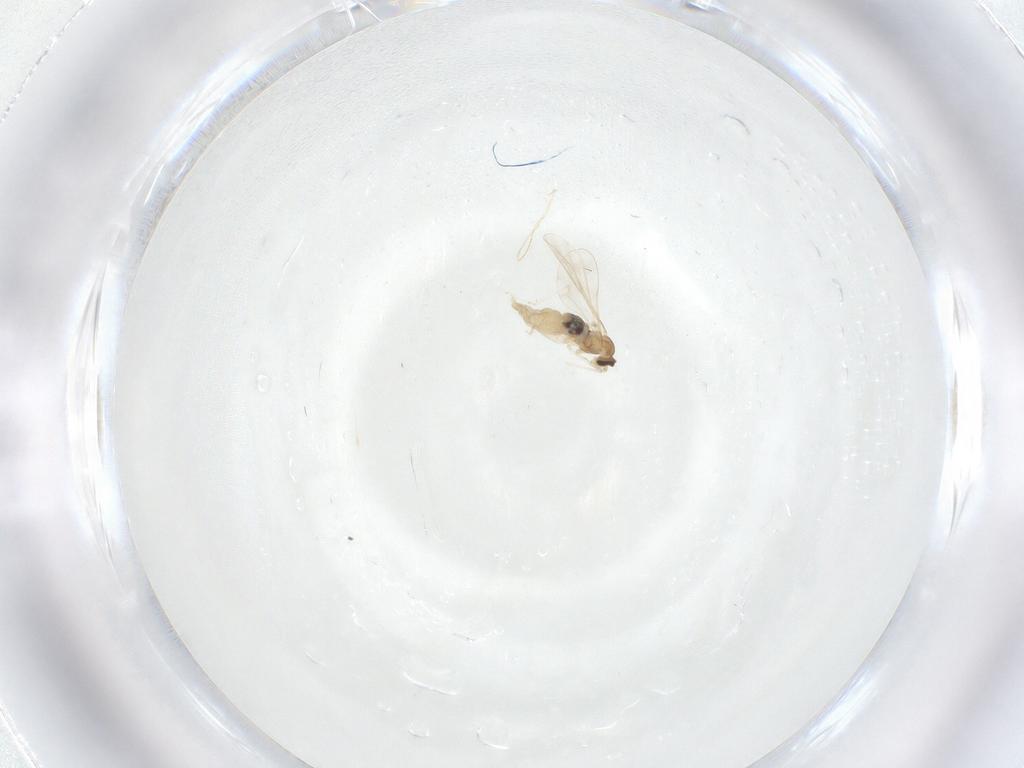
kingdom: Animalia
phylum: Arthropoda
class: Insecta
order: Diptera
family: Cecidomyiidae
